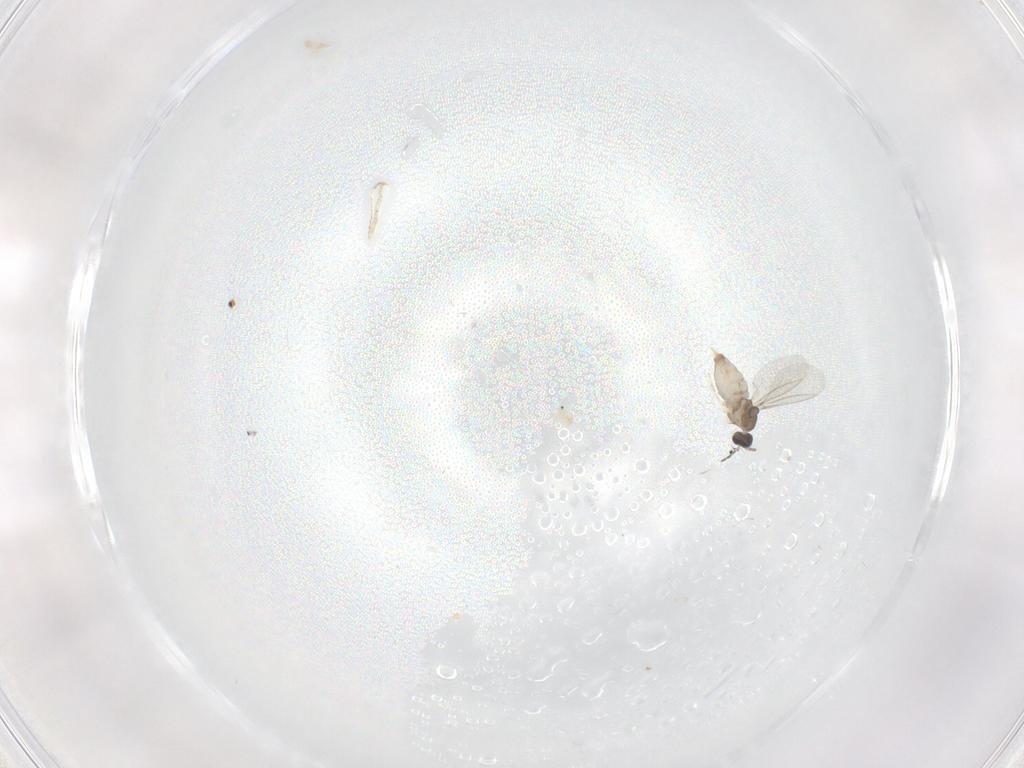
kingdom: Animalia
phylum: Arthropoda
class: Insecta
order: Diptera
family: Cecidomyiidae
